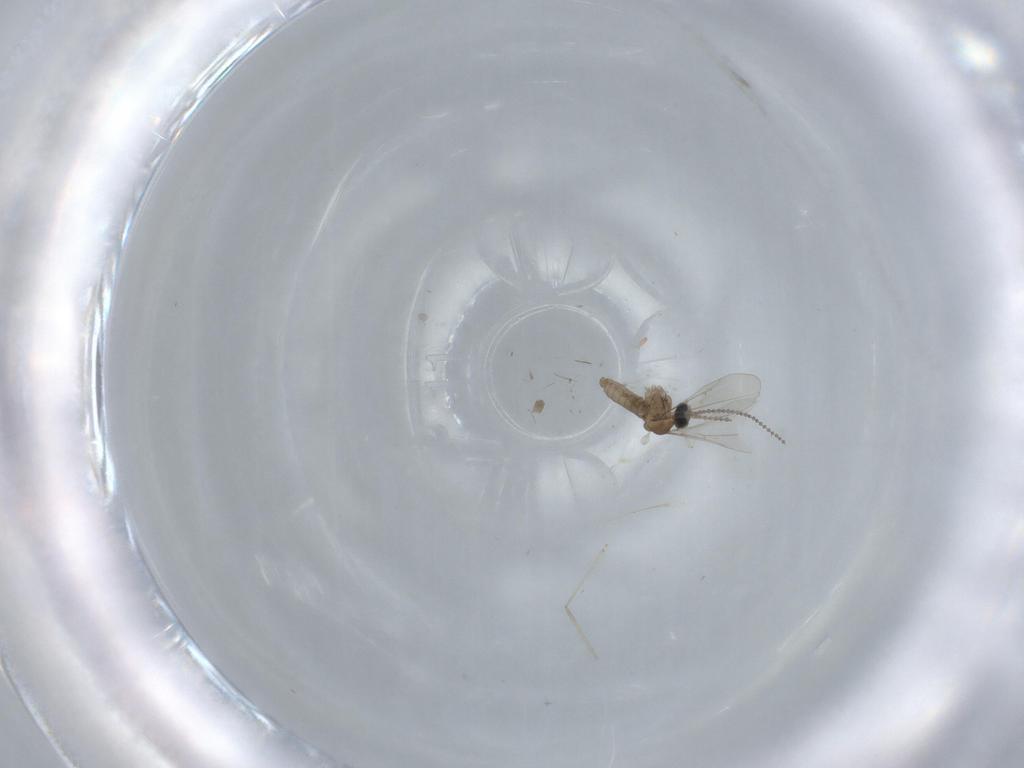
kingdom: Animalia
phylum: Arthropoda
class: Insecta
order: Diptera
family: Cecidomyiidae
